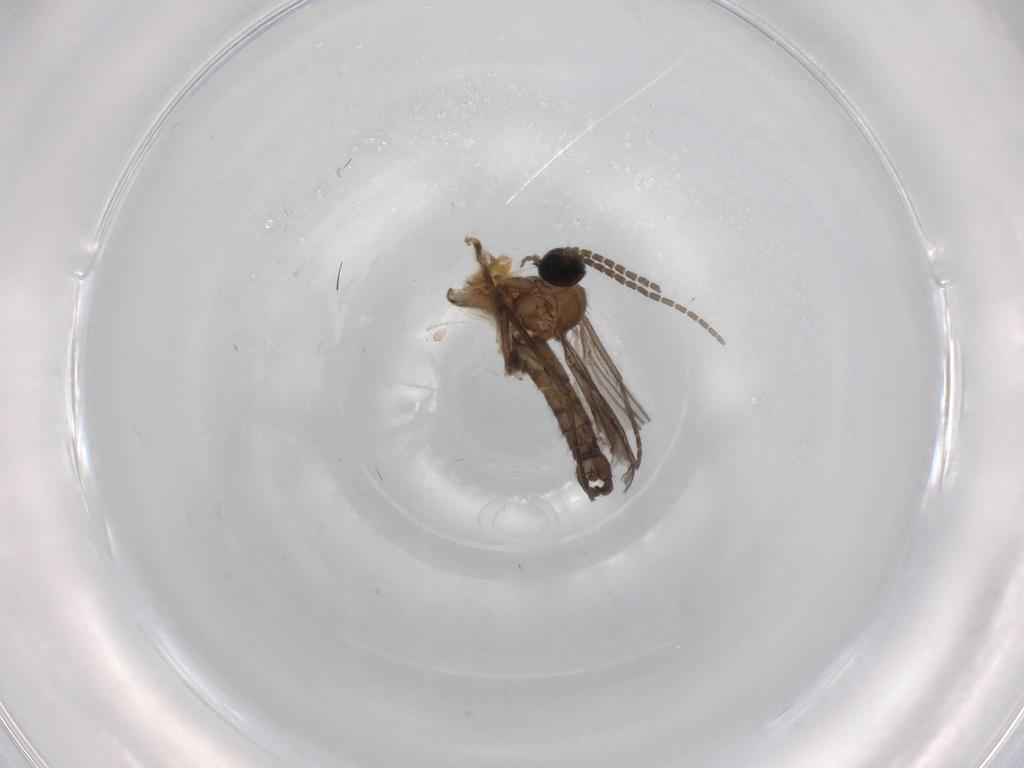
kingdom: Animalia
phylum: Arthropoda
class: Insecta
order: Diptera
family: Cecidomyiidae
